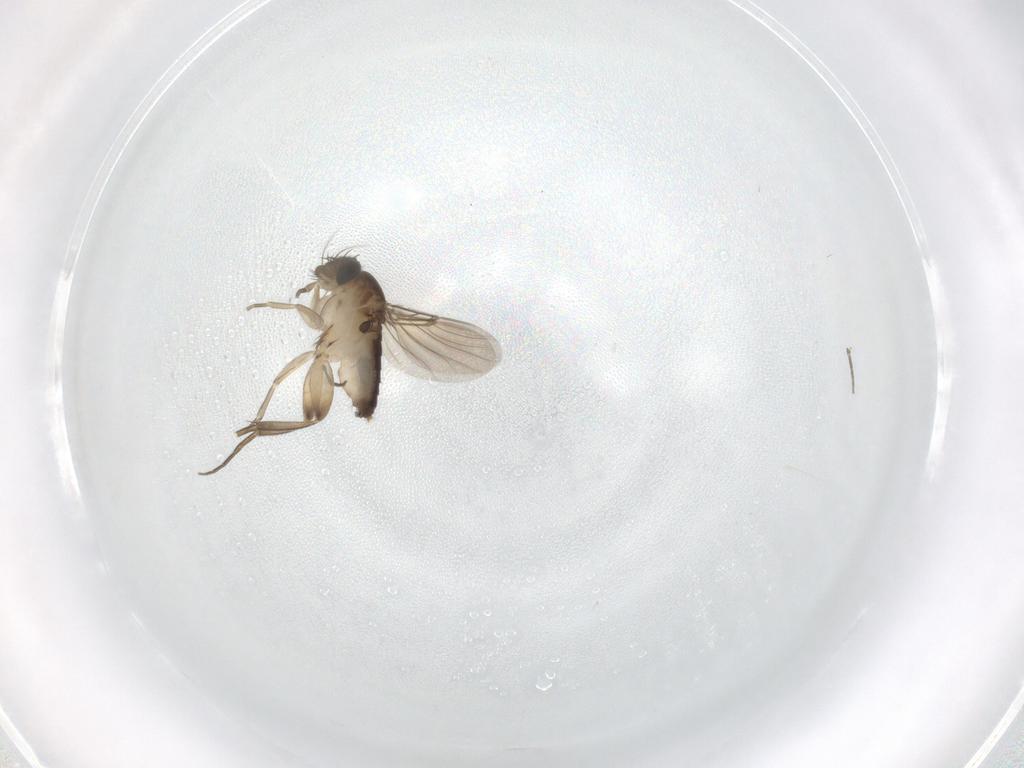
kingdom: Animalia
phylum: Arthropoda
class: Insecta
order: Diptera
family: Phoridae
